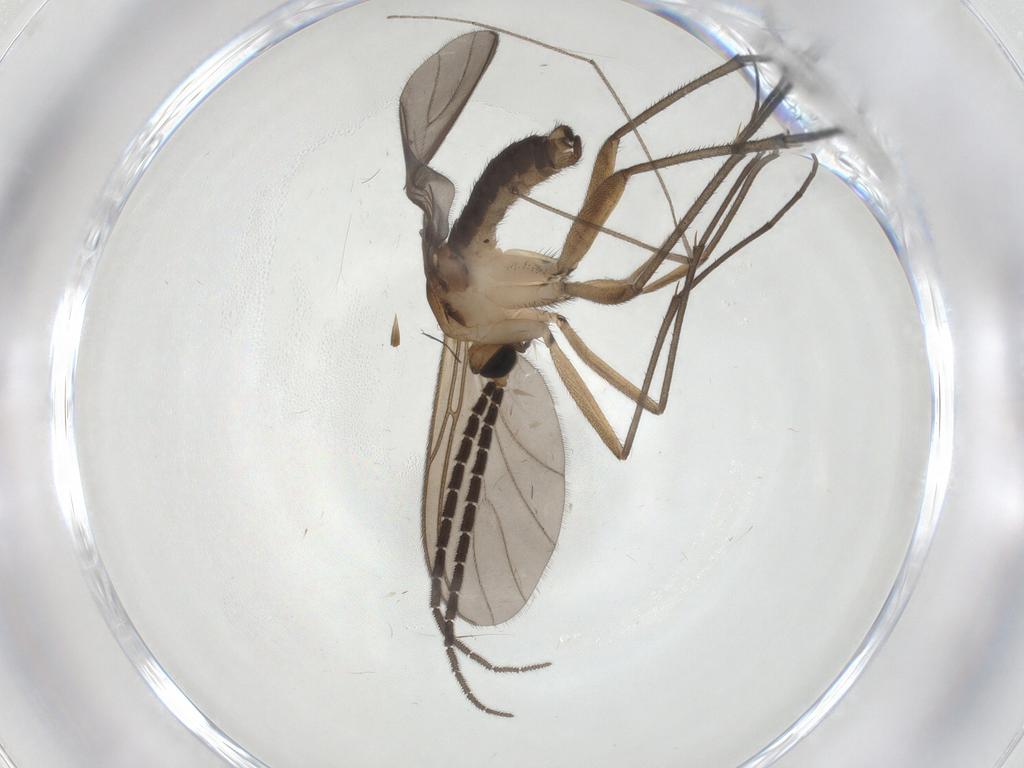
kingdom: Animalia
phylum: Arthropoda
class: Insecta
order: Diptera
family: Limoniidae
